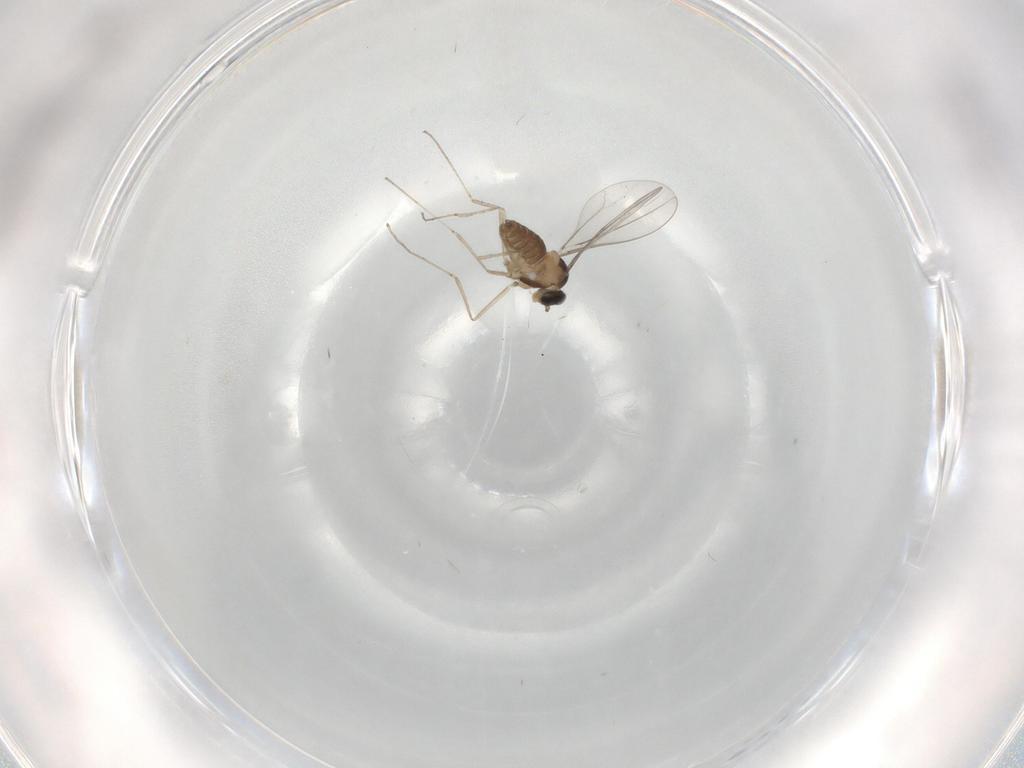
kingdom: Animalia
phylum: Arthropoda
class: Insecta
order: Diptera
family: Cecidomyiidae
